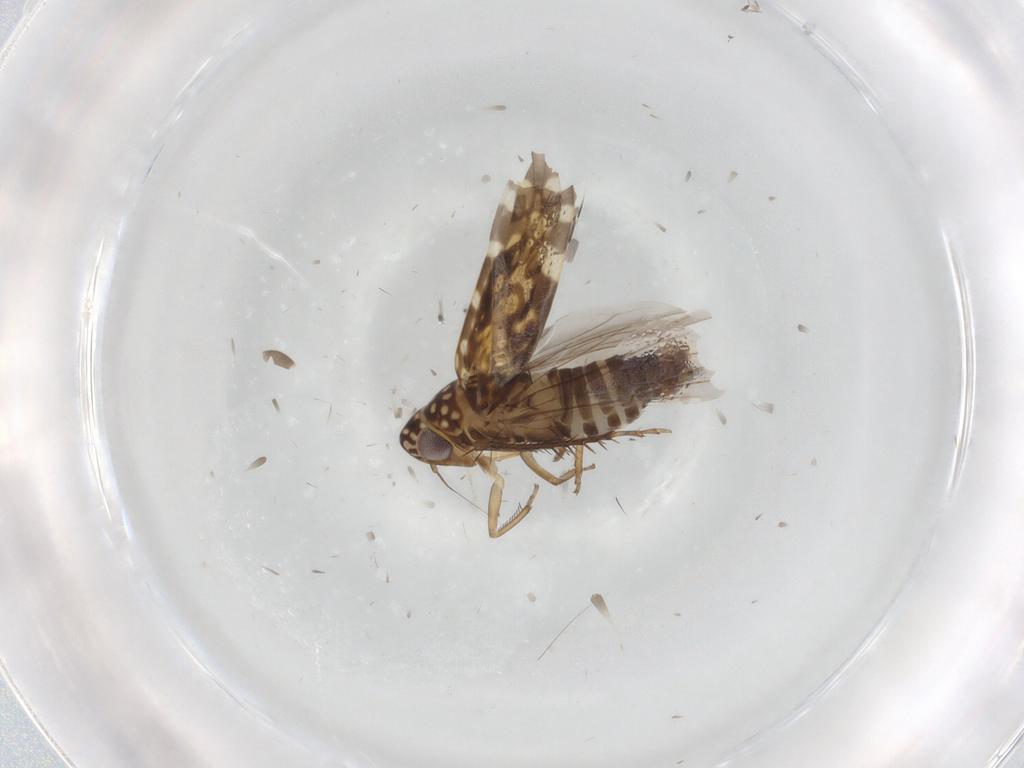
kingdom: Animalia
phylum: Arthropoda
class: Insecta
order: Hemiptera
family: Cicadellidae
